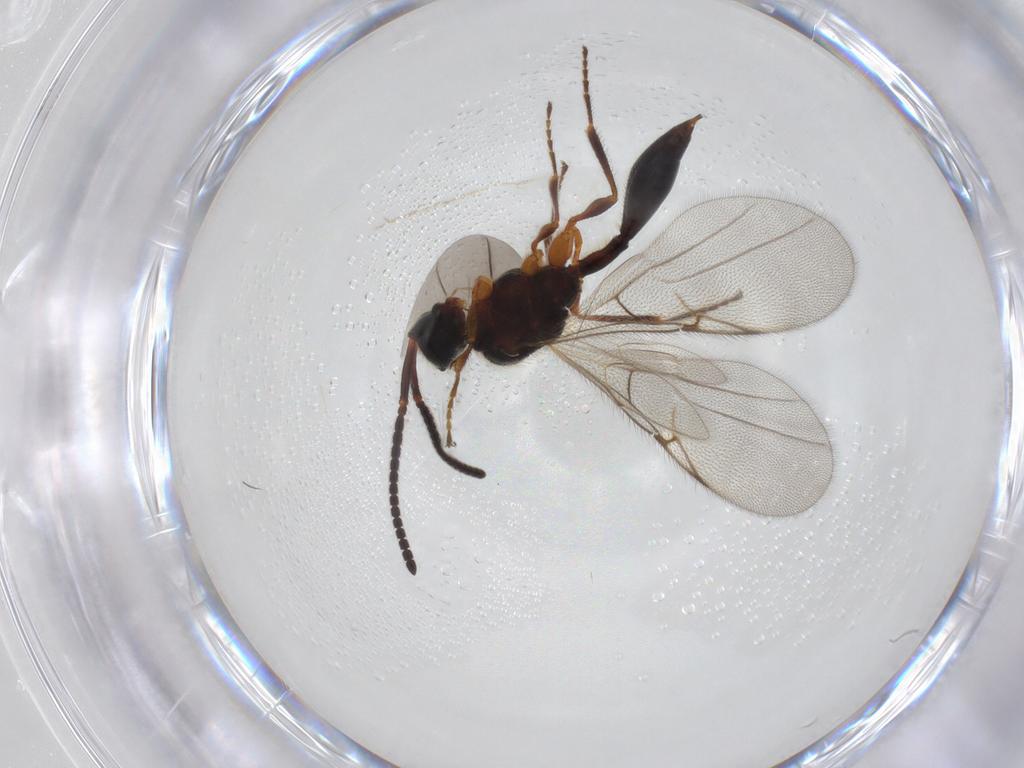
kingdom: Animalia
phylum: Arthropoda
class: Insecta
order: Hymenoptera
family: Diapriidae
